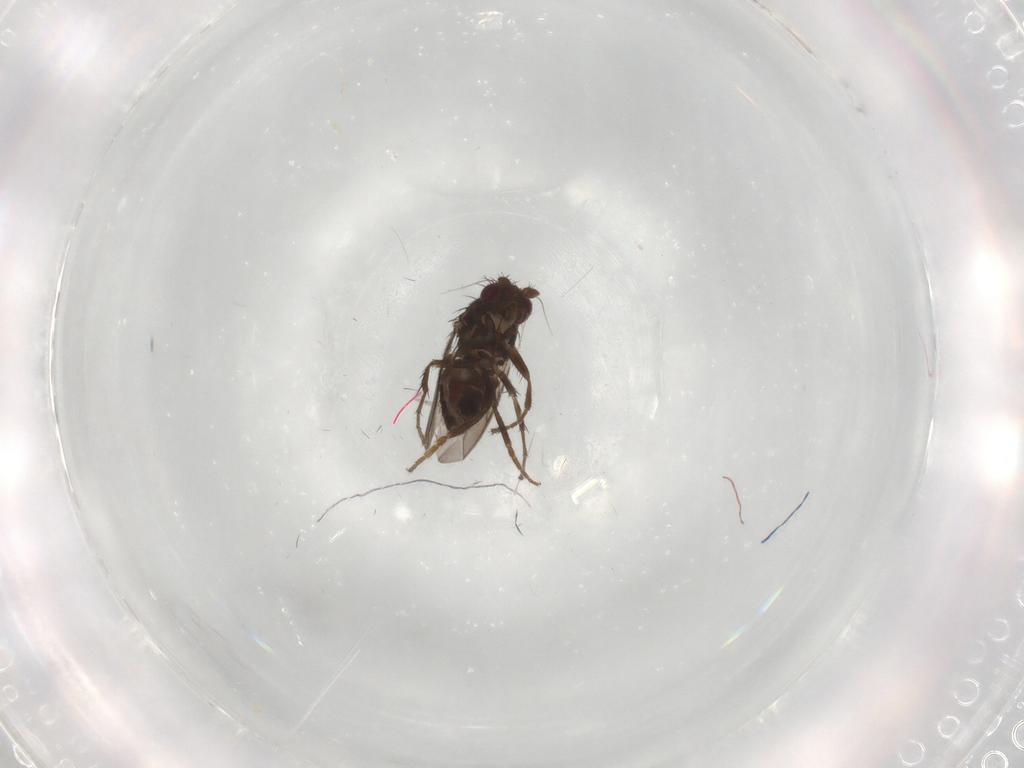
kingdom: Animalia
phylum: Arthropoda
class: Insecta
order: Diptera
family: Sphaeroceridae
